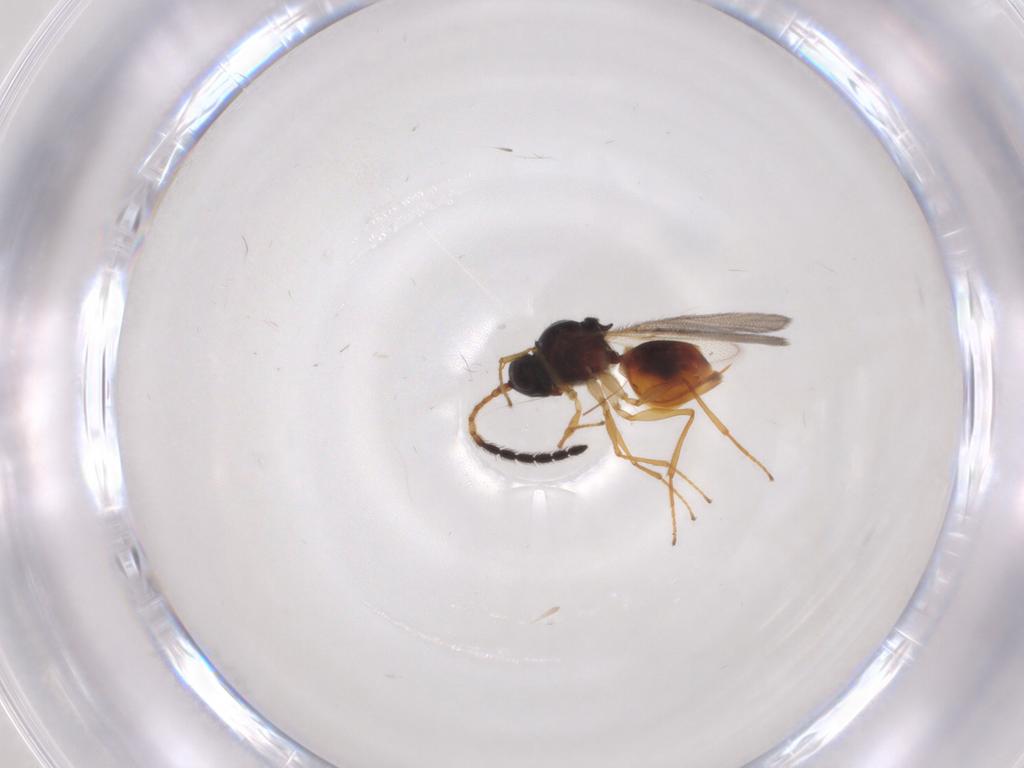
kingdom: Animalia
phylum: Arthropoda
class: Insecta
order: Hymenoptera
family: Figitidae
